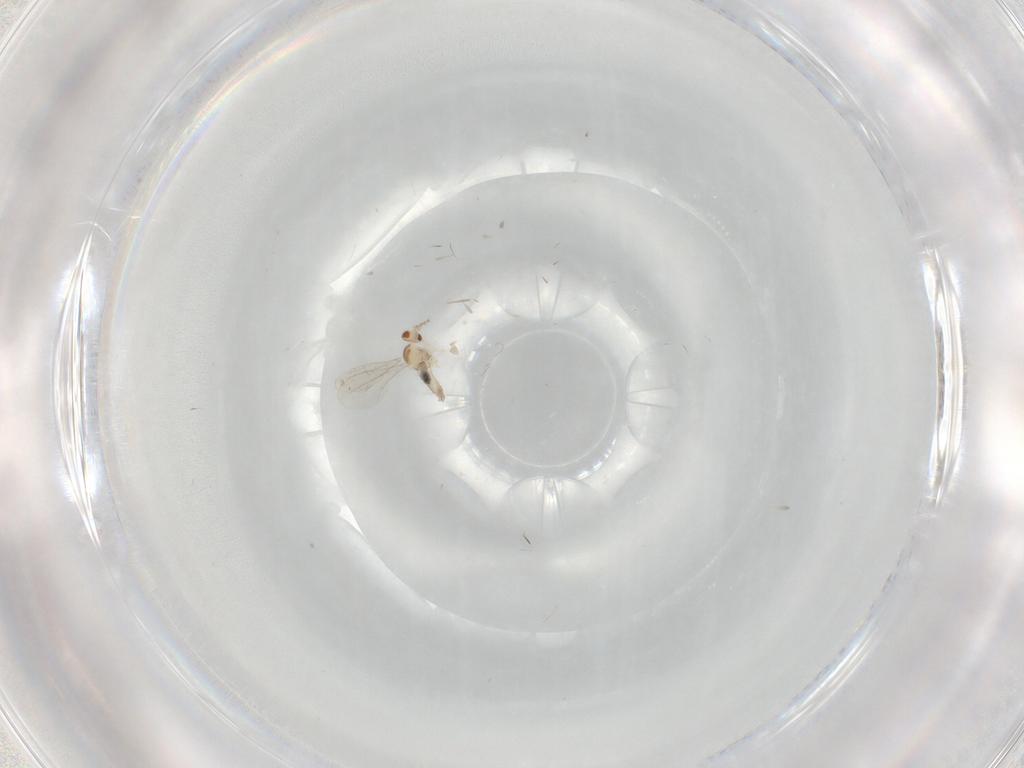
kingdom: Animalia
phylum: Arthropoda
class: Insecta
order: Diptera
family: Cecidomyiidae
